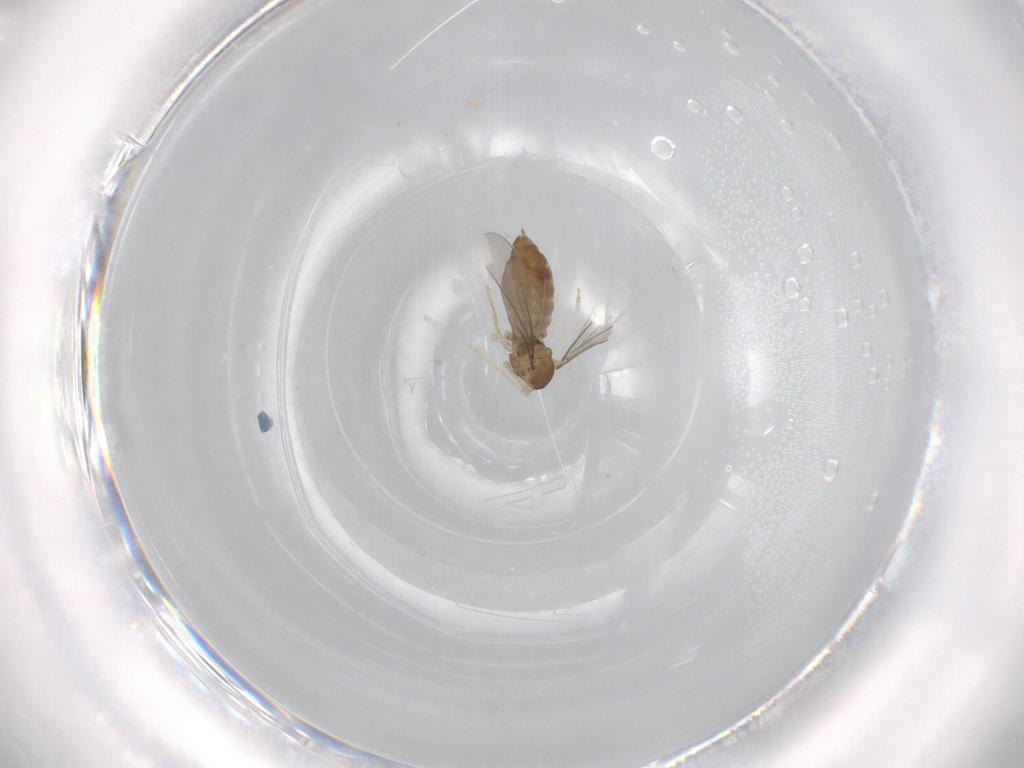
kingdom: Animalia
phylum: Arthropoda
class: Insecta
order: Diptera
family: Cecidomyiidae
